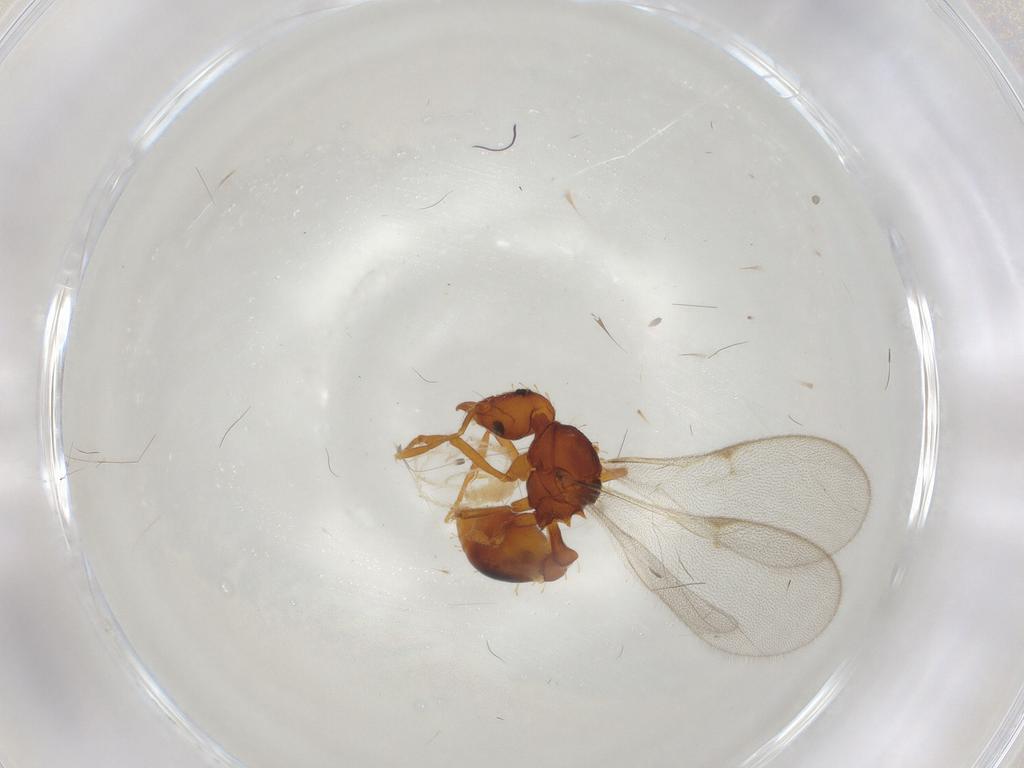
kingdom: Animalia
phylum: Arthropoda
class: Insecta
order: Hymenoptera
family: Formicidae
